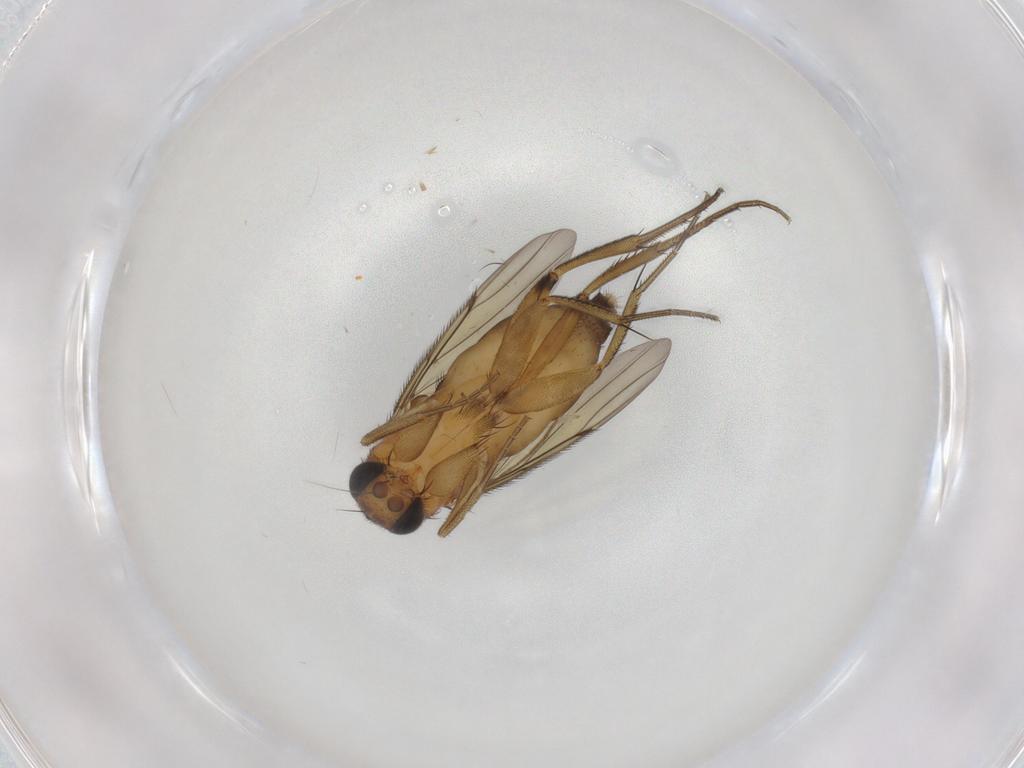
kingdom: Animalia
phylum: Arthropoda
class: Insecta
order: Diptera
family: Phoridae
